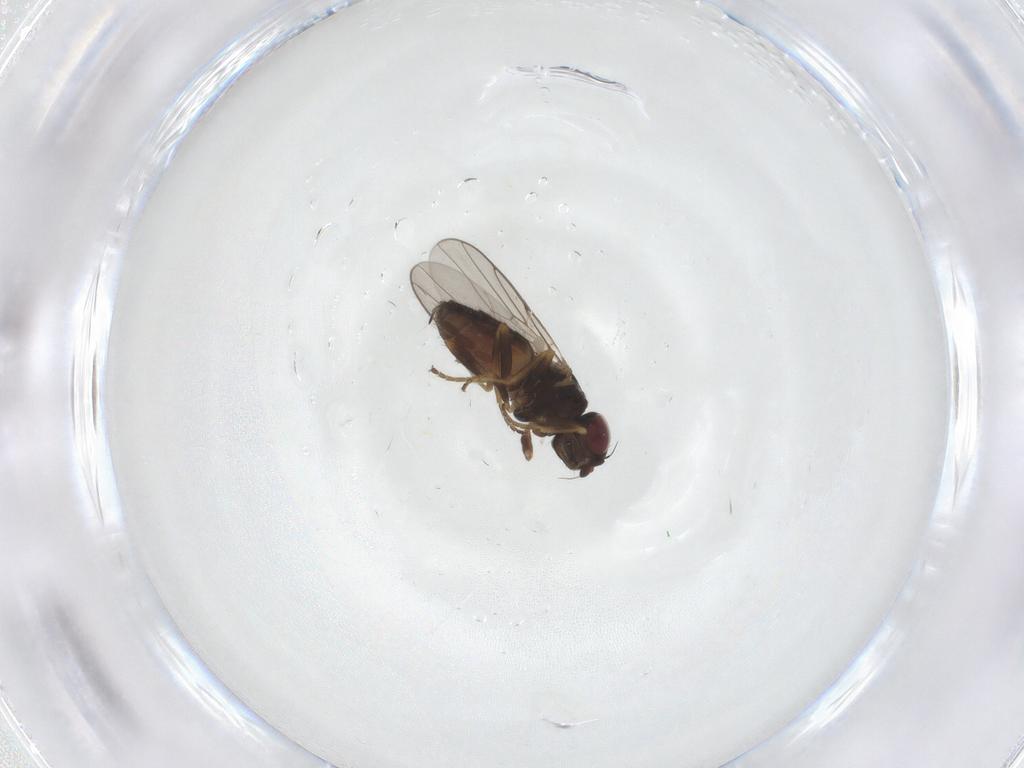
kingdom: Animalia
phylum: Arthropoda
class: Insecta
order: Diptera
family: Chloropidae
